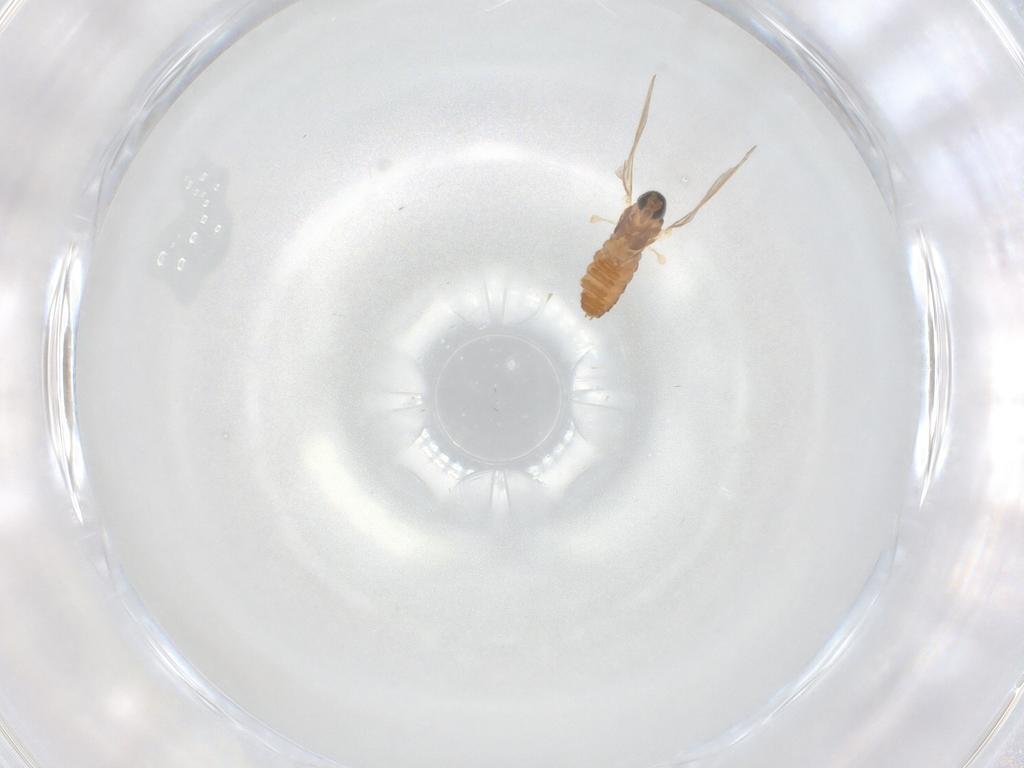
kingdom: Animalia
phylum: Arthropoda
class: Insecta
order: Diptera
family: Cecidomyiidae
